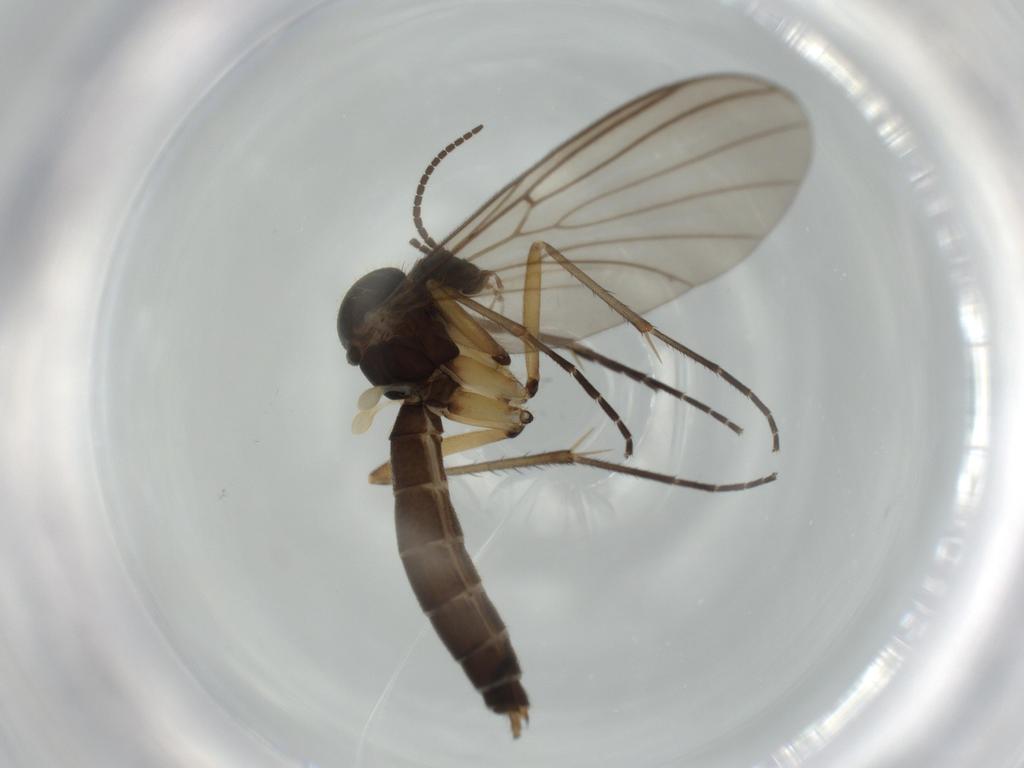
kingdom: Animalia
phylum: Arthropoda
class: Insecta
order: Diptera
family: Mycetophilidae
